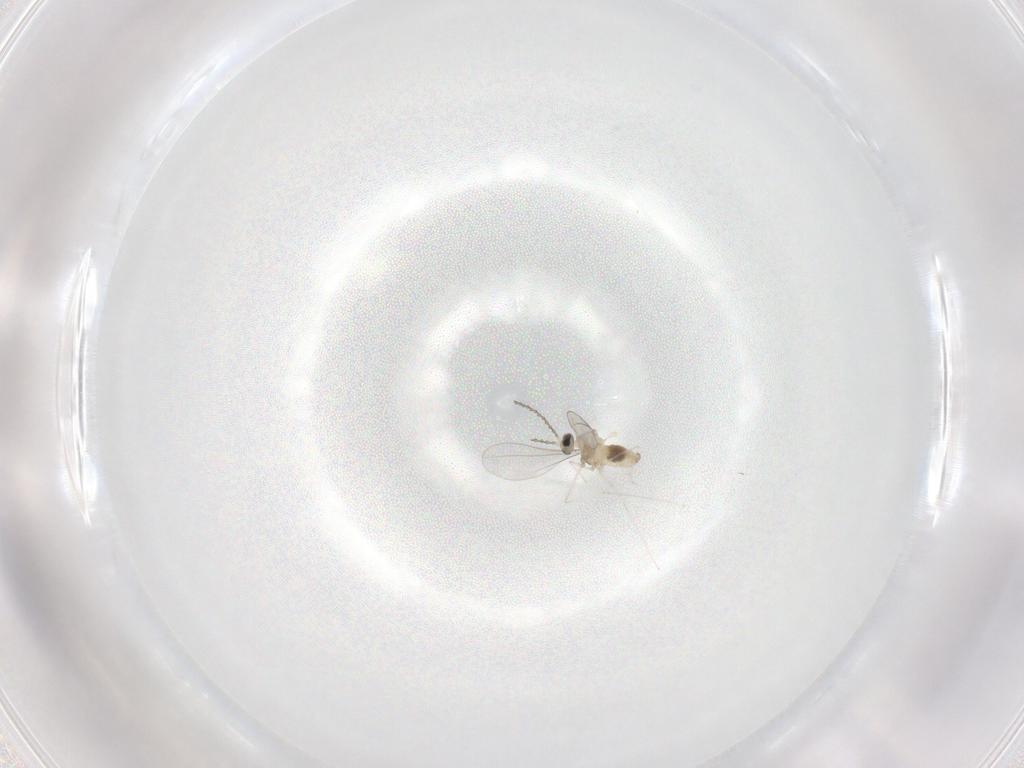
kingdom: Animalia
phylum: Arthropoda
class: Insecta
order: Diptera
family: Cecidomyiidae
